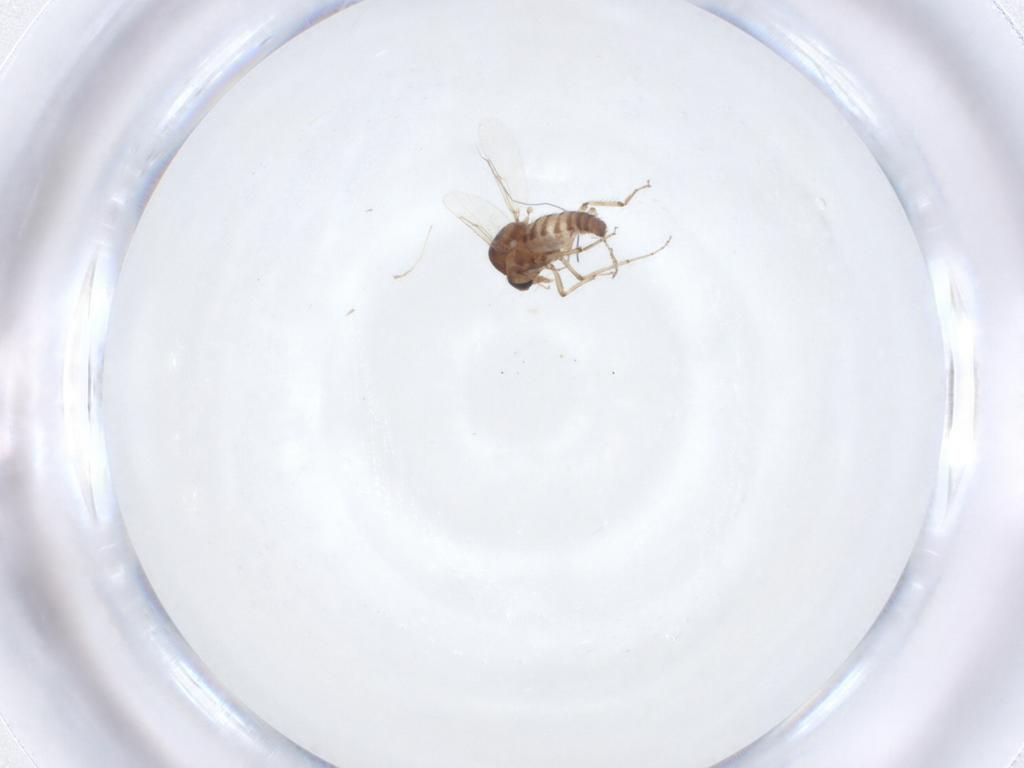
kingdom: Animalia
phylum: Arthropoda
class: Insecta
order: Diptera
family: Ceratopogonidae
